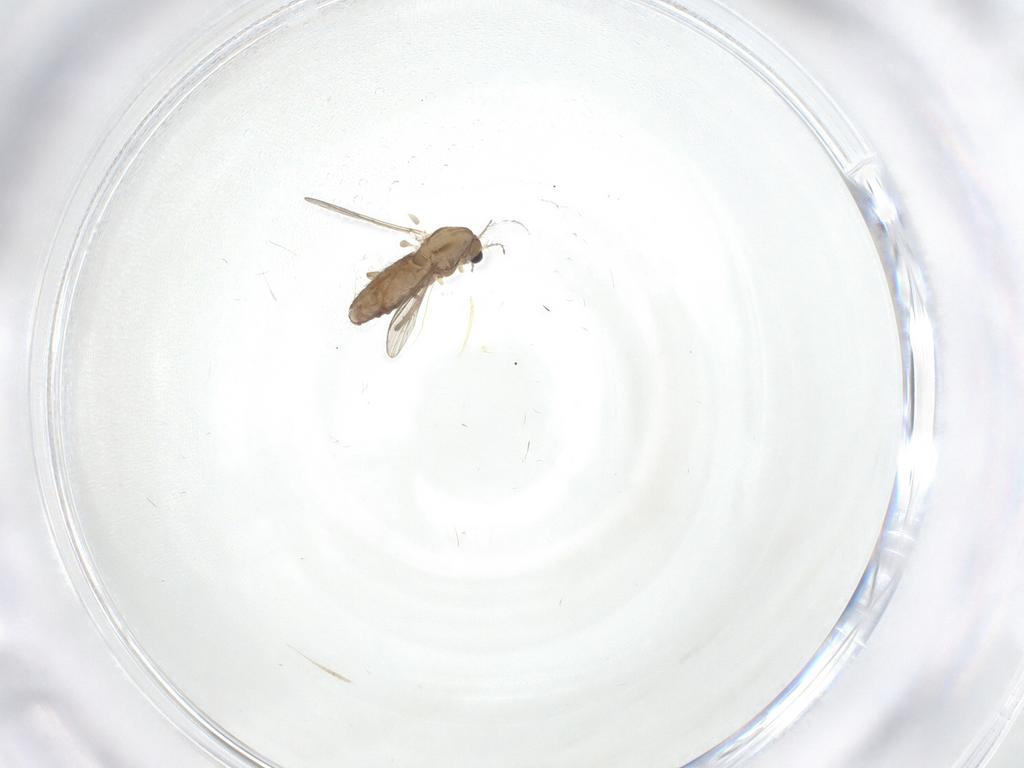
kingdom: Animalia
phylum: Arthropoda
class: Insecta
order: Diptera
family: Chironomidae
